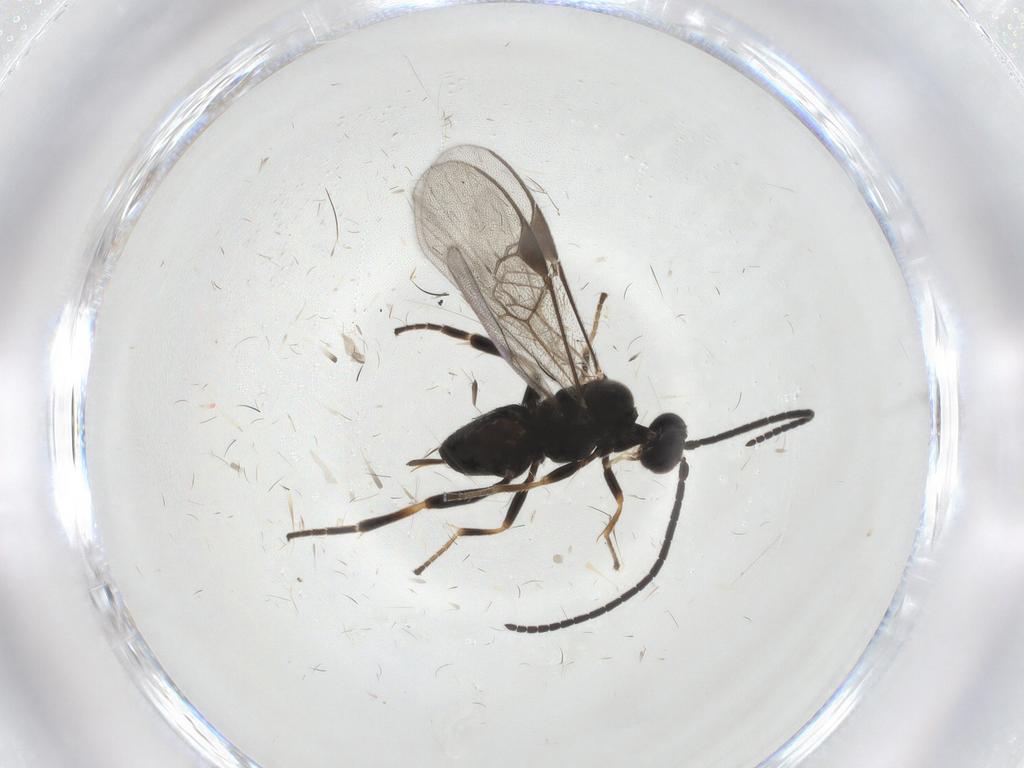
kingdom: Animalia
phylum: Arthropoda
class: Insecta
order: Hymenoptera
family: Braconidae
